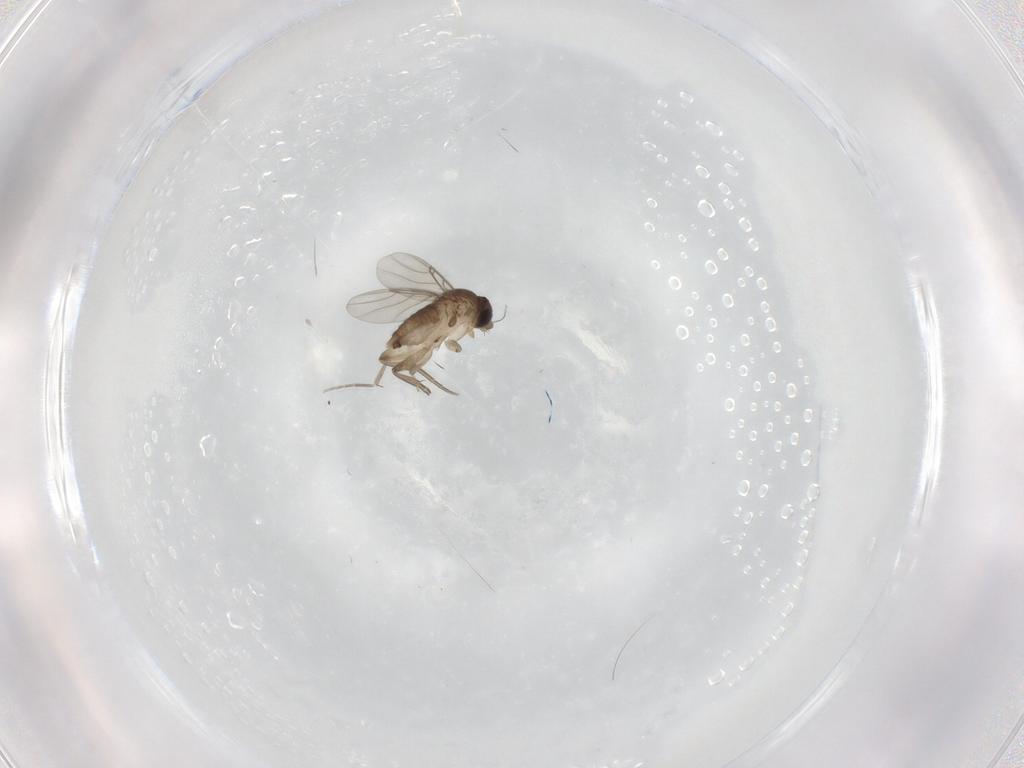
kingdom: Animalia
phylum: Arthropoda
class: Insecta
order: Diptera
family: Phoridae
